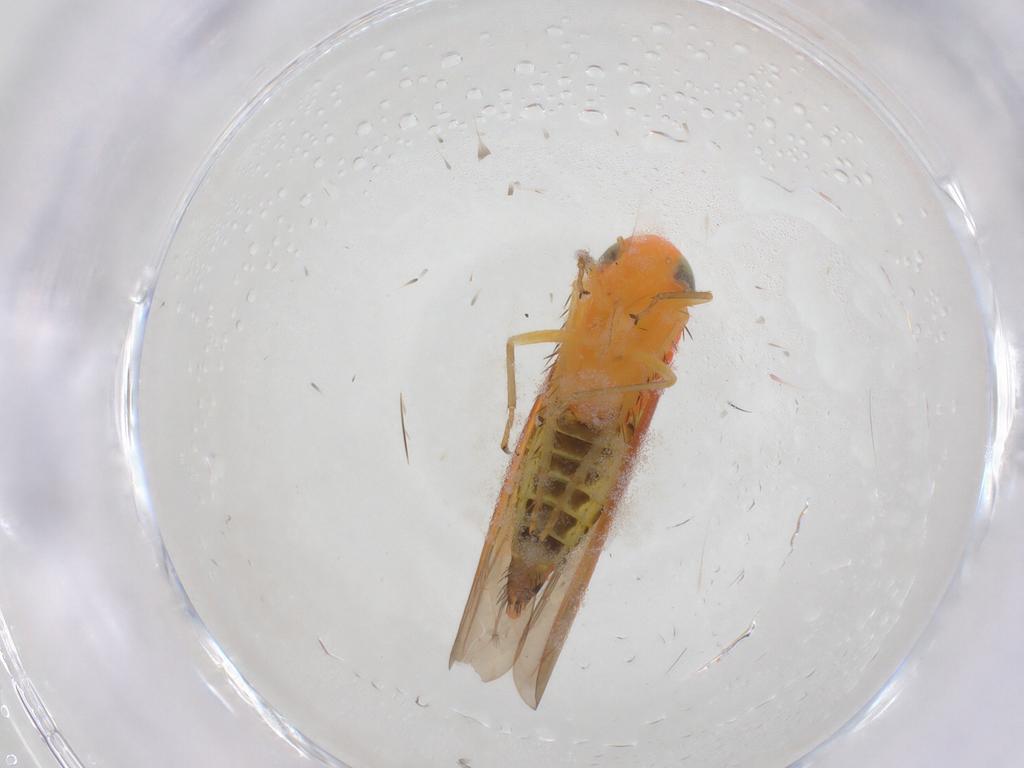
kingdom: Animalia
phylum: Arthropoda
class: Insecta
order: Hemiptera
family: Cicadellidae
